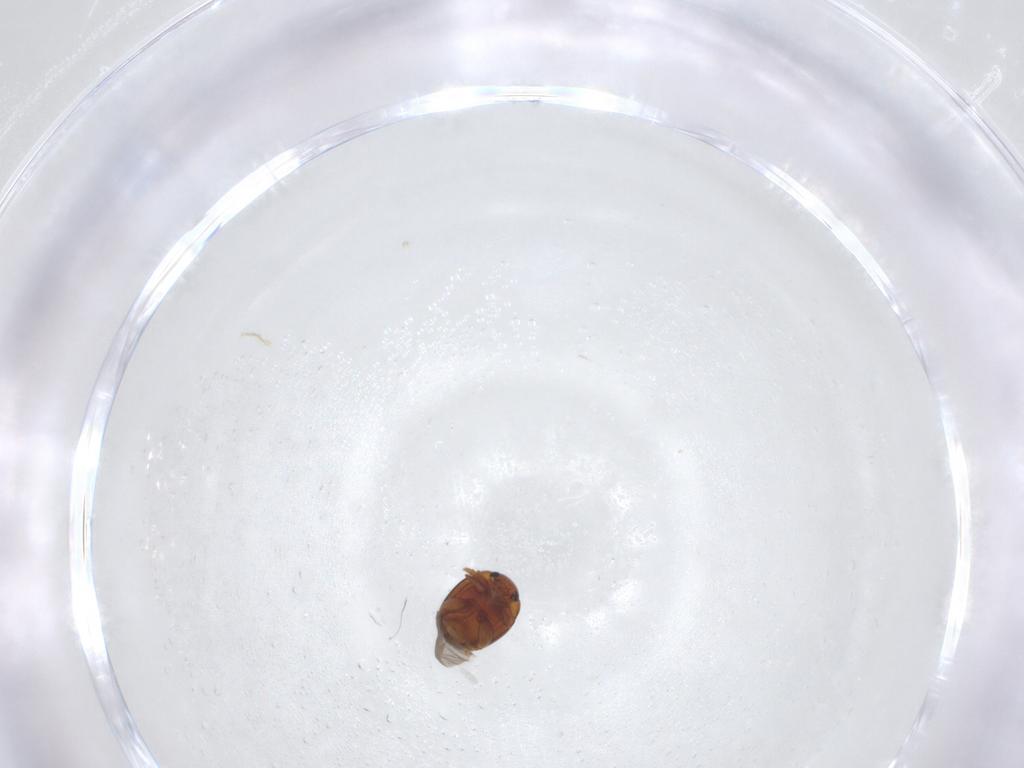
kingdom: Animalia
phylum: Arthropoda
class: Insecta
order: Coleoptera
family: Chrysomelidae
